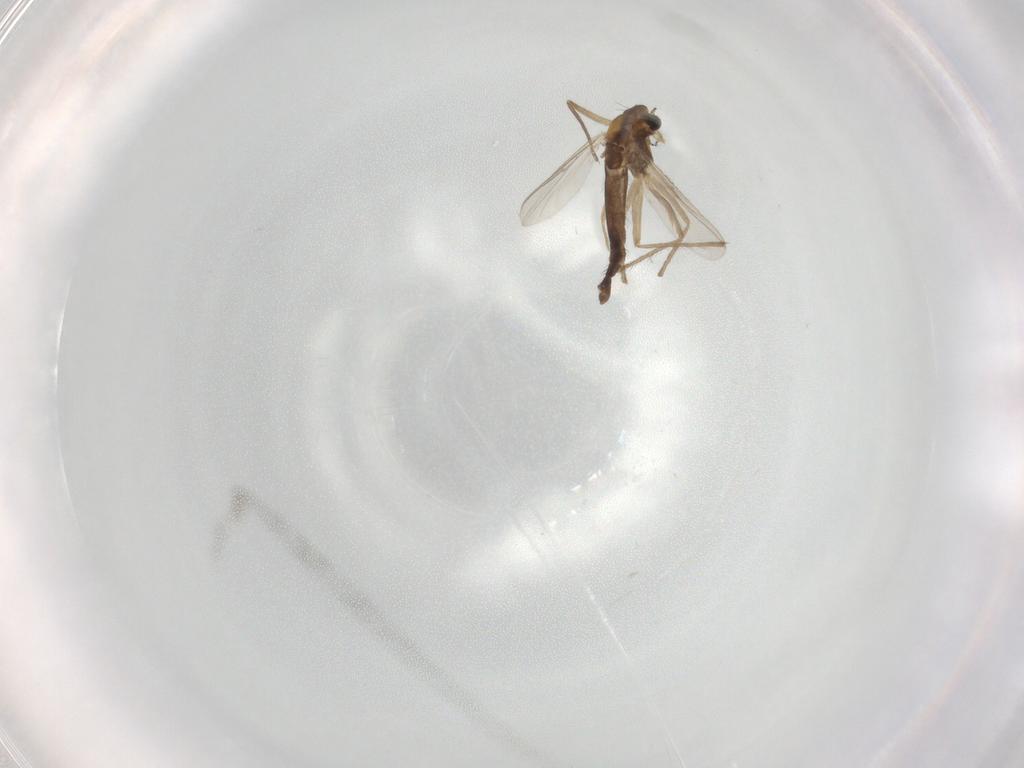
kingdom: Animalia
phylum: Arthropoda
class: Insecta
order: Diptera
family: Chironomidae
